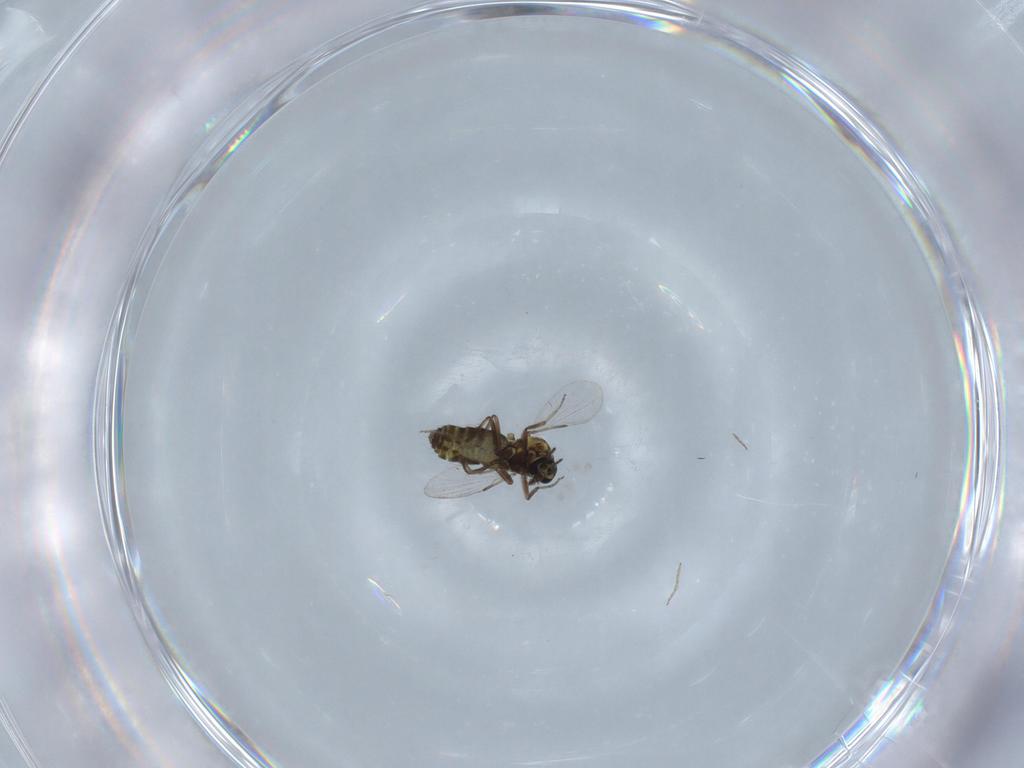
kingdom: Animalia
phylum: Arthropoda
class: Insecta
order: Diptera
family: Ceratopogonidae
